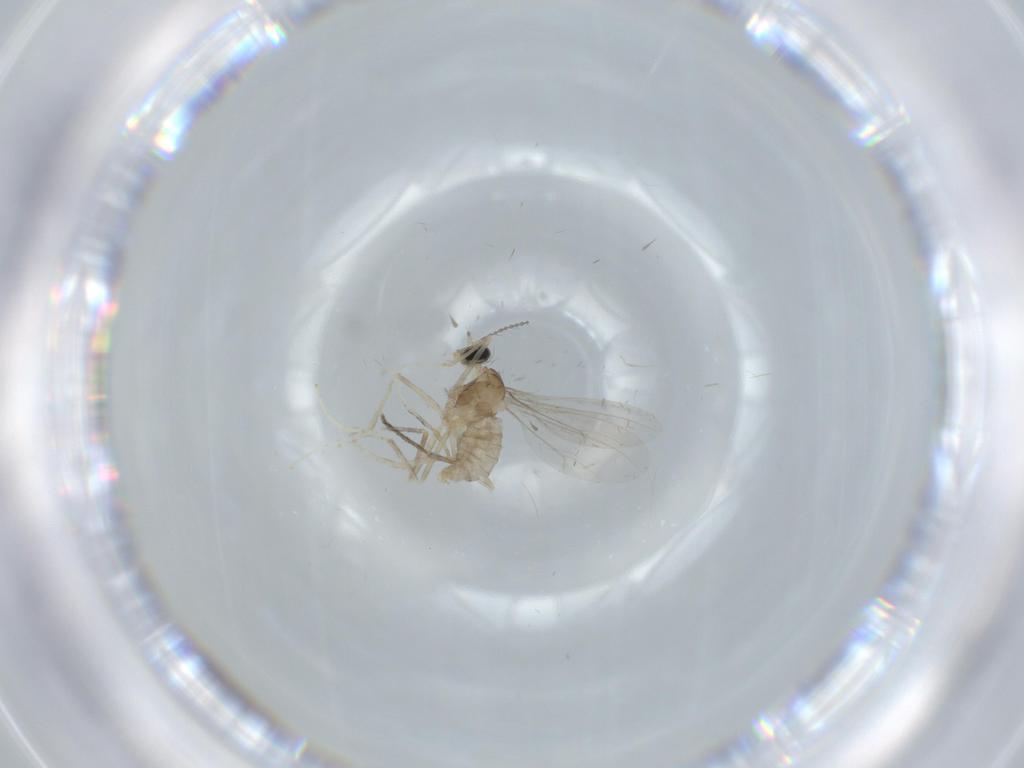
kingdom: Animalia
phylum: Arthropoda
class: Insecta
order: Diptera
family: Cecidomyiidae
